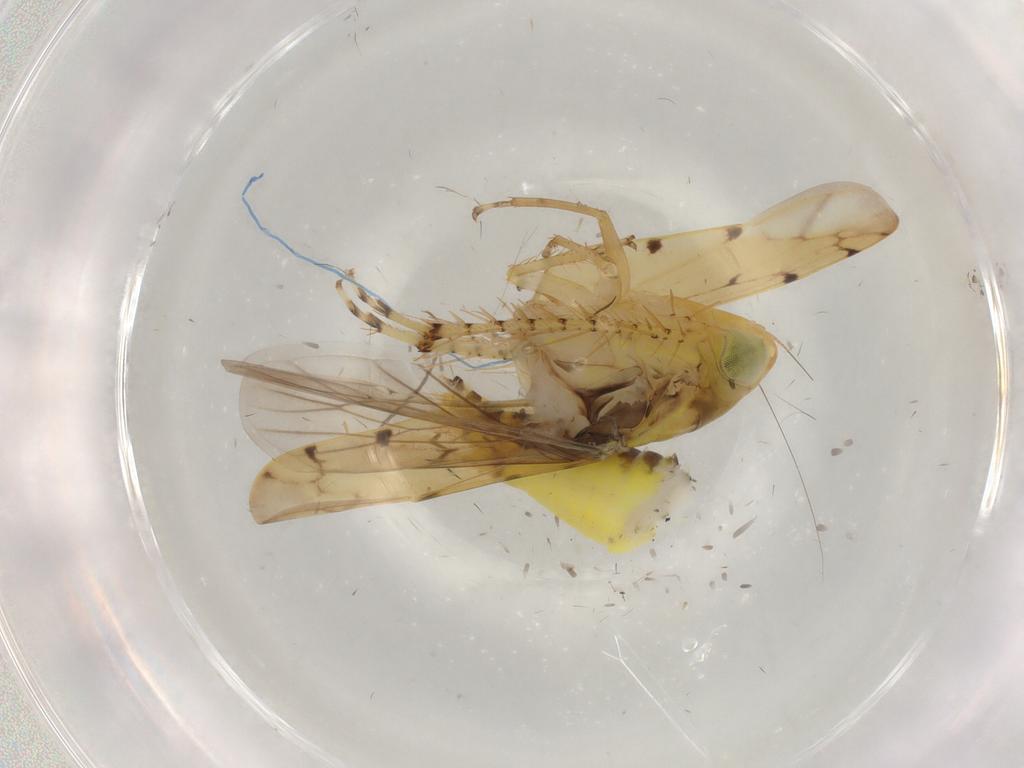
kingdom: Animalia
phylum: Arthropoda
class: Insecta
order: Hemiptera
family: Cicadellidae
